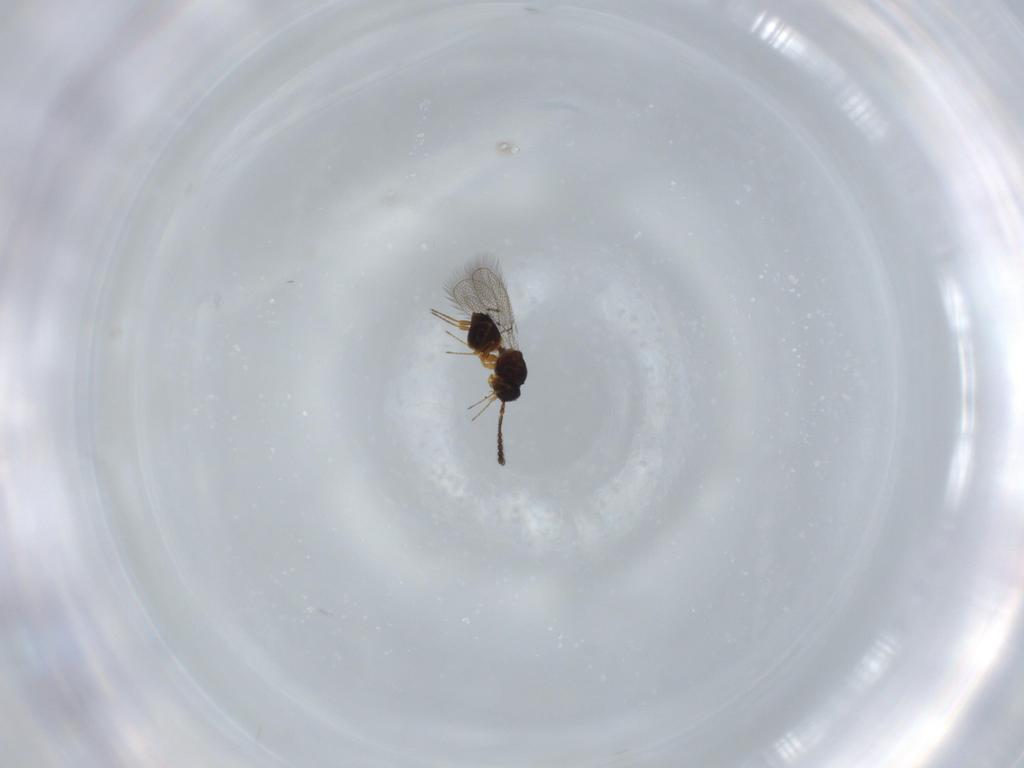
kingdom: Animalia
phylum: Arthropoda
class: Insecta
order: Hymenoptera
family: Figitidae
